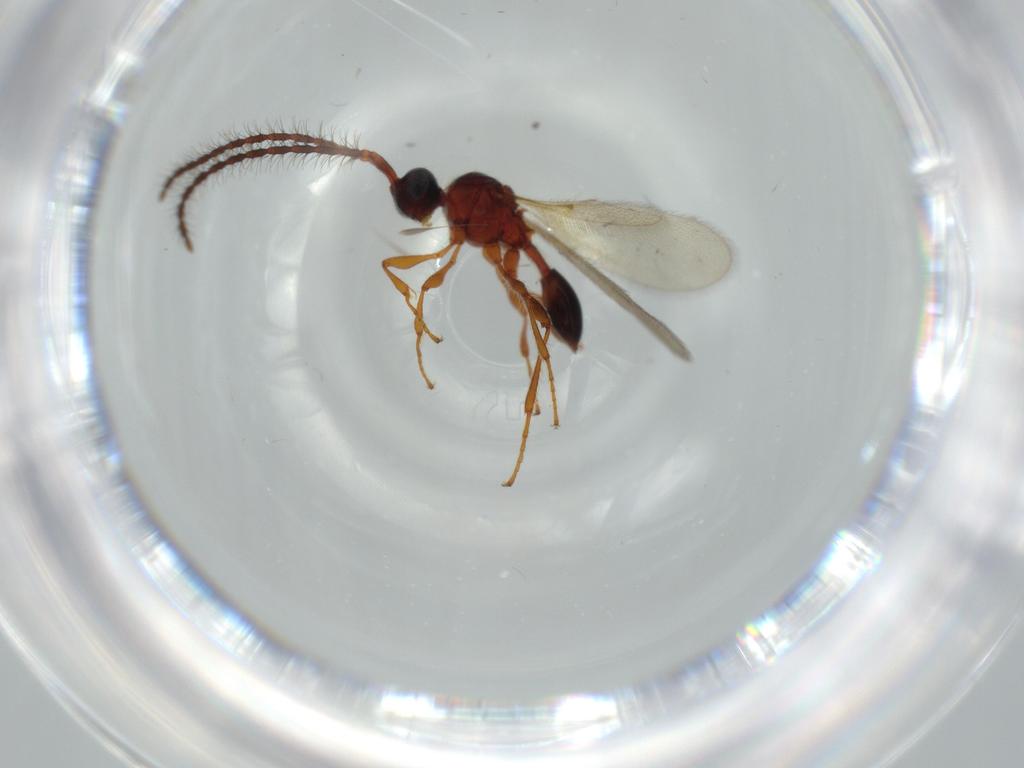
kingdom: Animalia
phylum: Arthropoda
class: Insecta
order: Hymenoptera
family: Diapriidae
